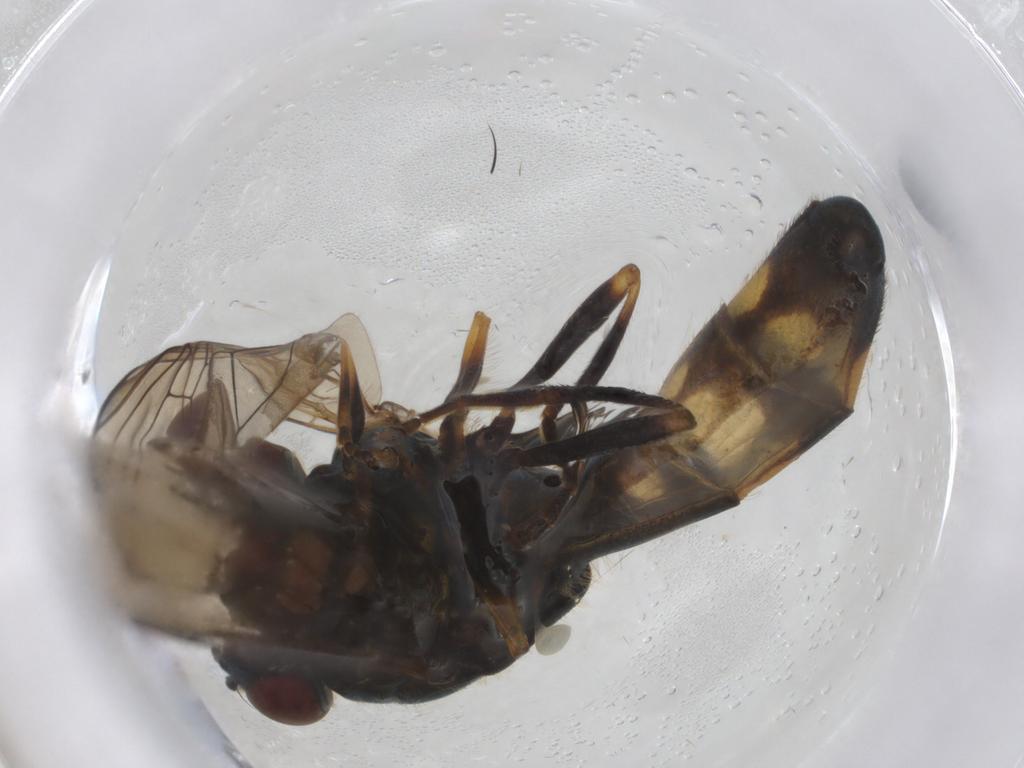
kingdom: Animalia
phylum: Arthropoda
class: Insecta
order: Diptera
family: Syrphidae
